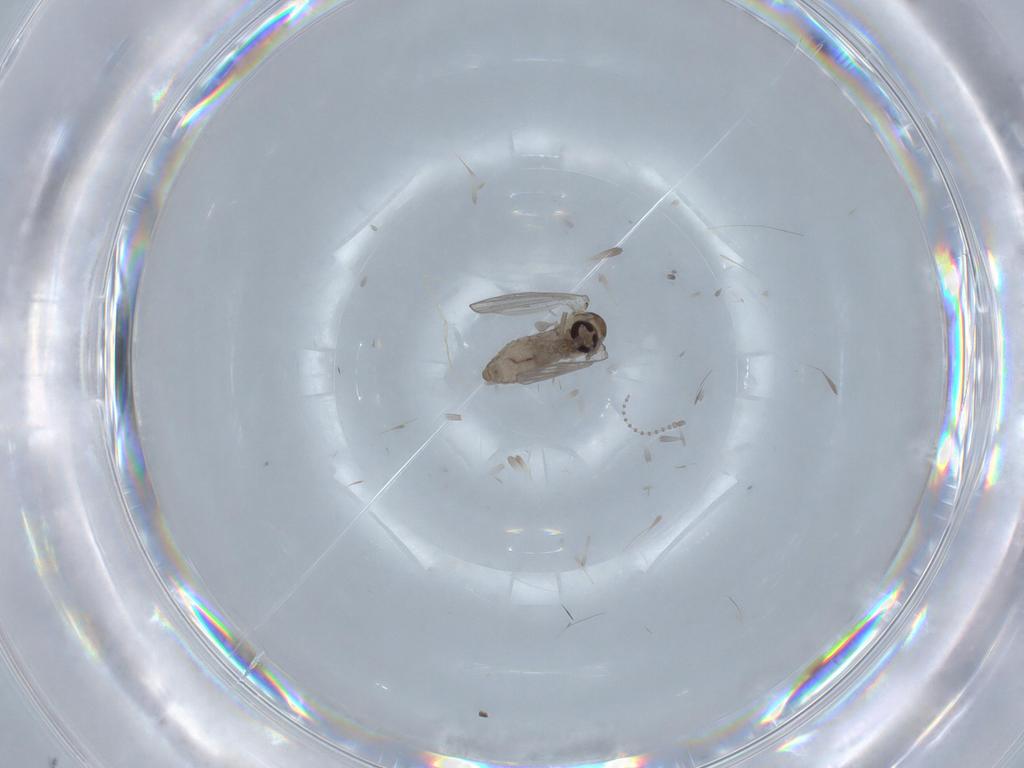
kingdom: Animalia
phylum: Arthropoda
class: Insecta
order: Diptera
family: Psychodidae
